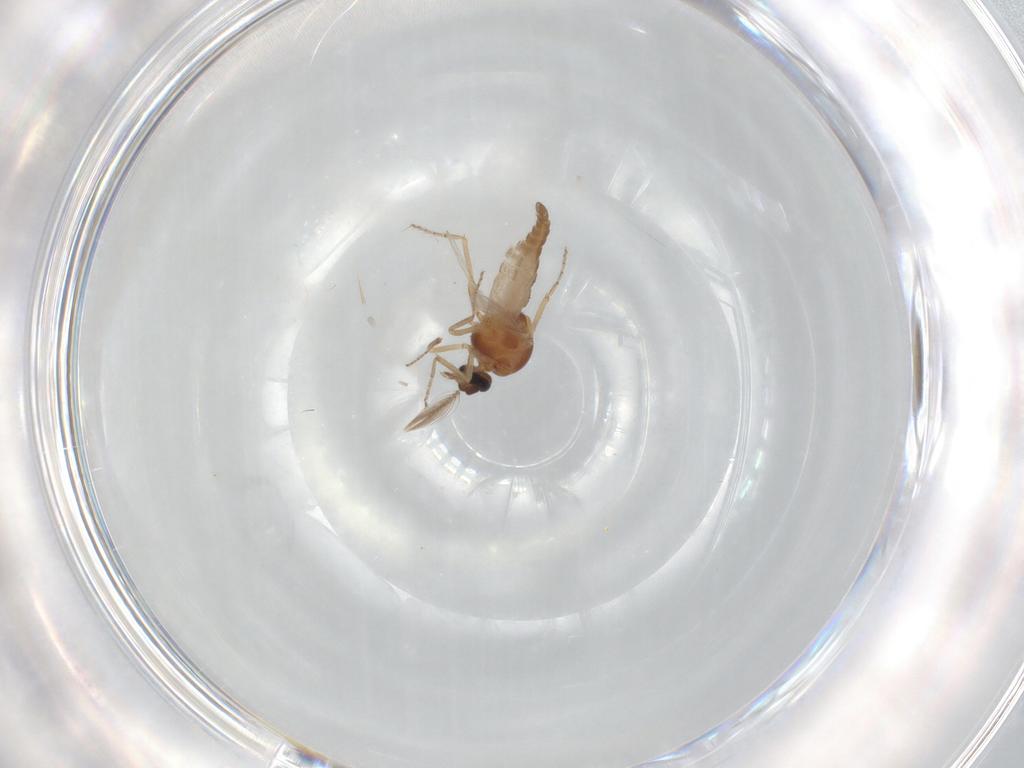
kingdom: Animalia
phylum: Arthropoda
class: Insecta
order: Diptera
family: Ceratopogonidae
